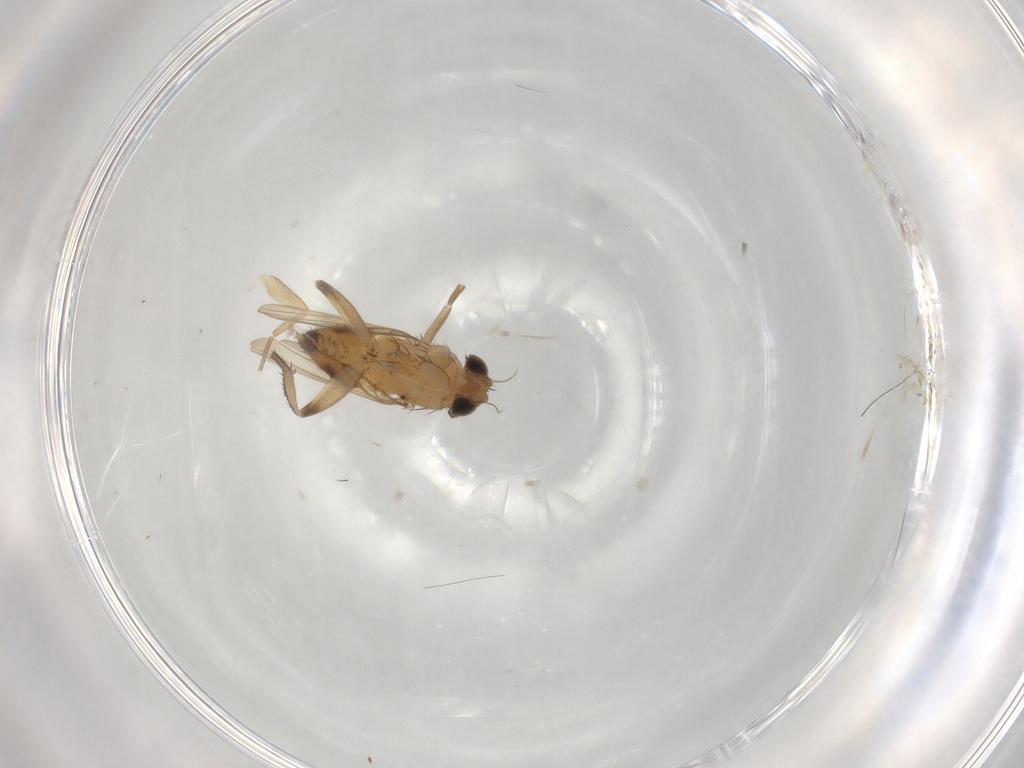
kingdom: Animalia
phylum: Arthropoda
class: Insecta
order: Diptera
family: Phoridae
